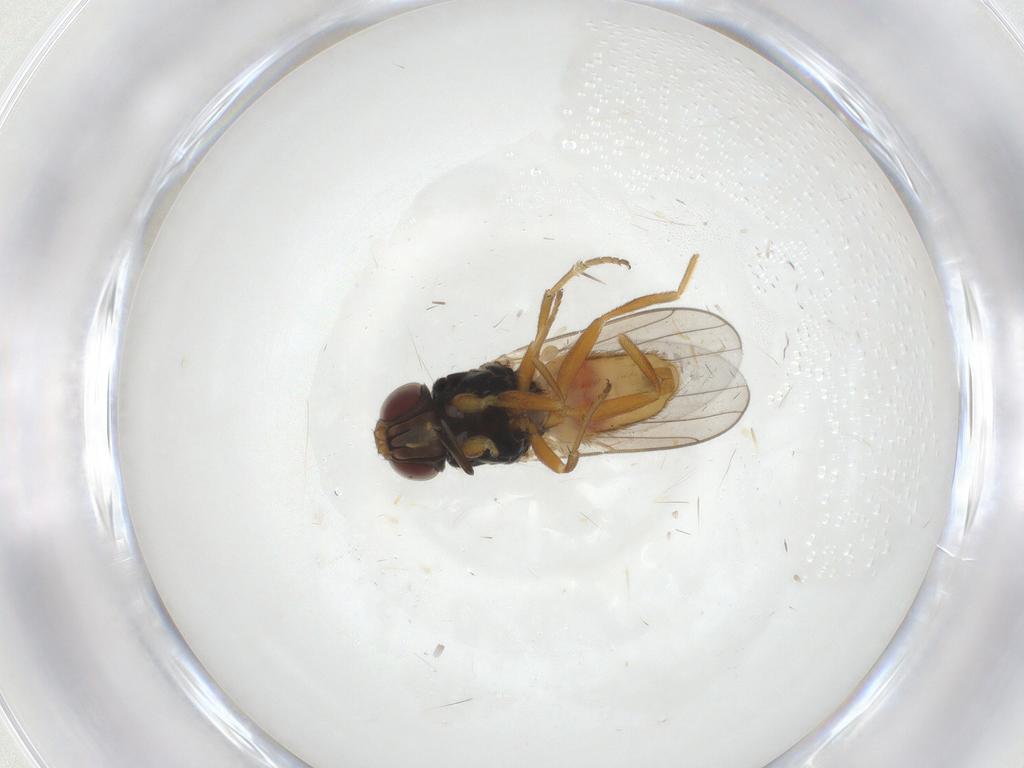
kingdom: Animalia
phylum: Arthropoda
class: Insecta
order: Diptera
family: Chloropidae
